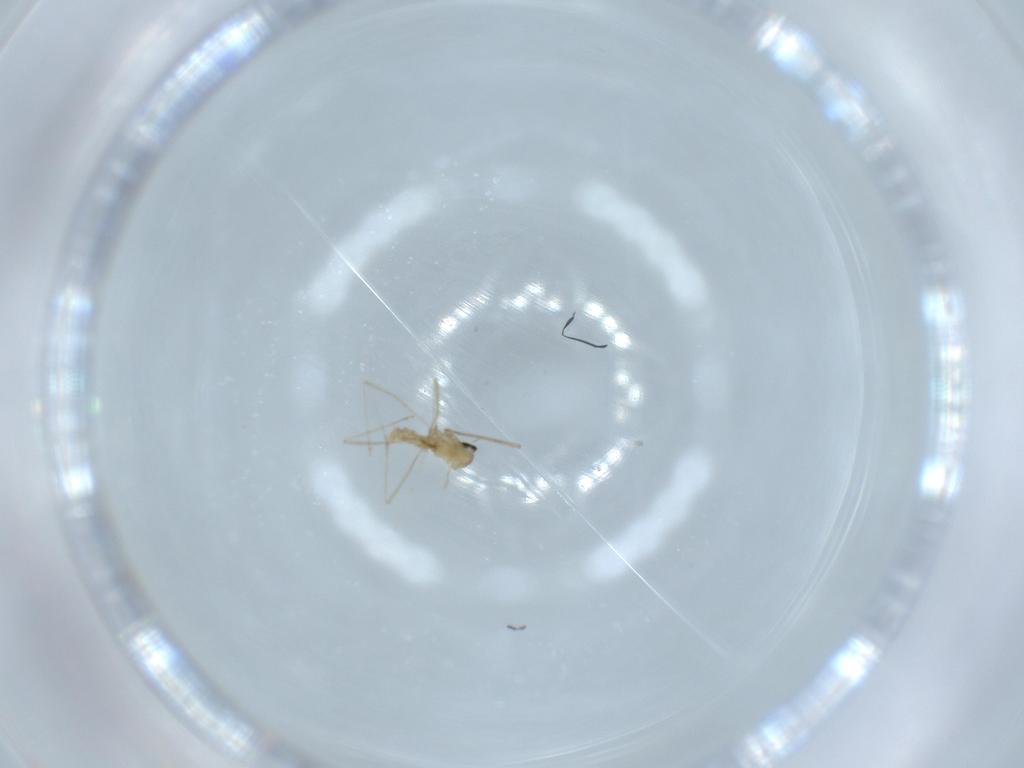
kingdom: Animalia
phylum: Arthropoda
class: Insecta
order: Diptera
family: Cecidomyiidae
